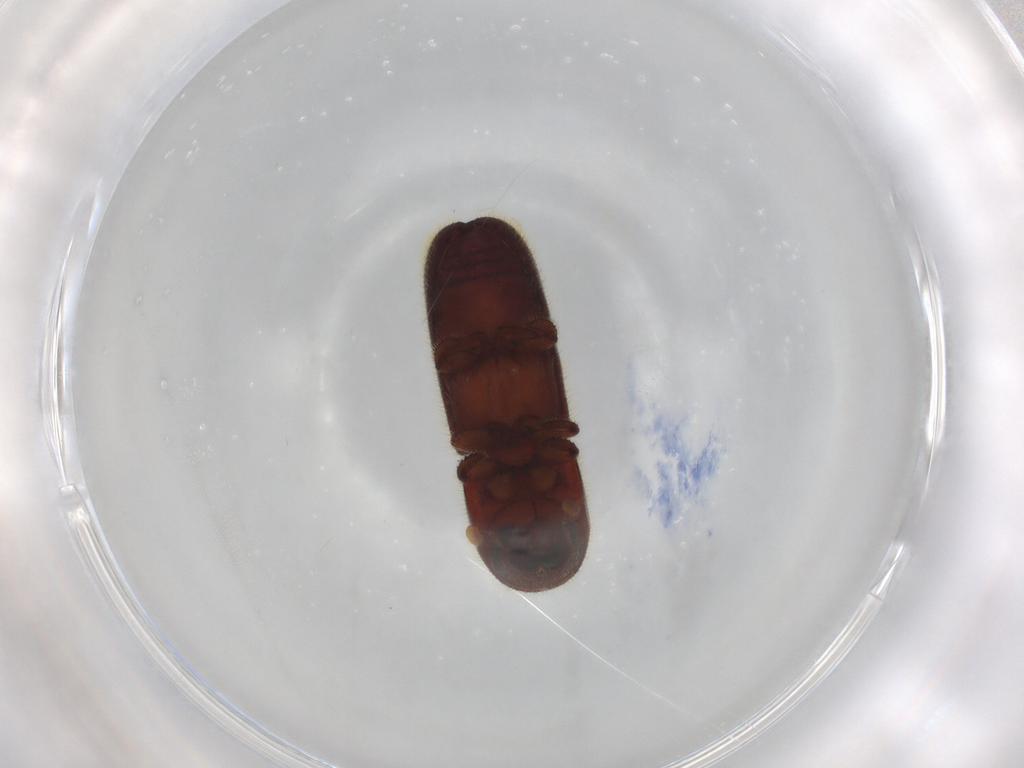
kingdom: Animalia
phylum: Arthropoda
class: Insecta
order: Coleoptera
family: Curculionidae
